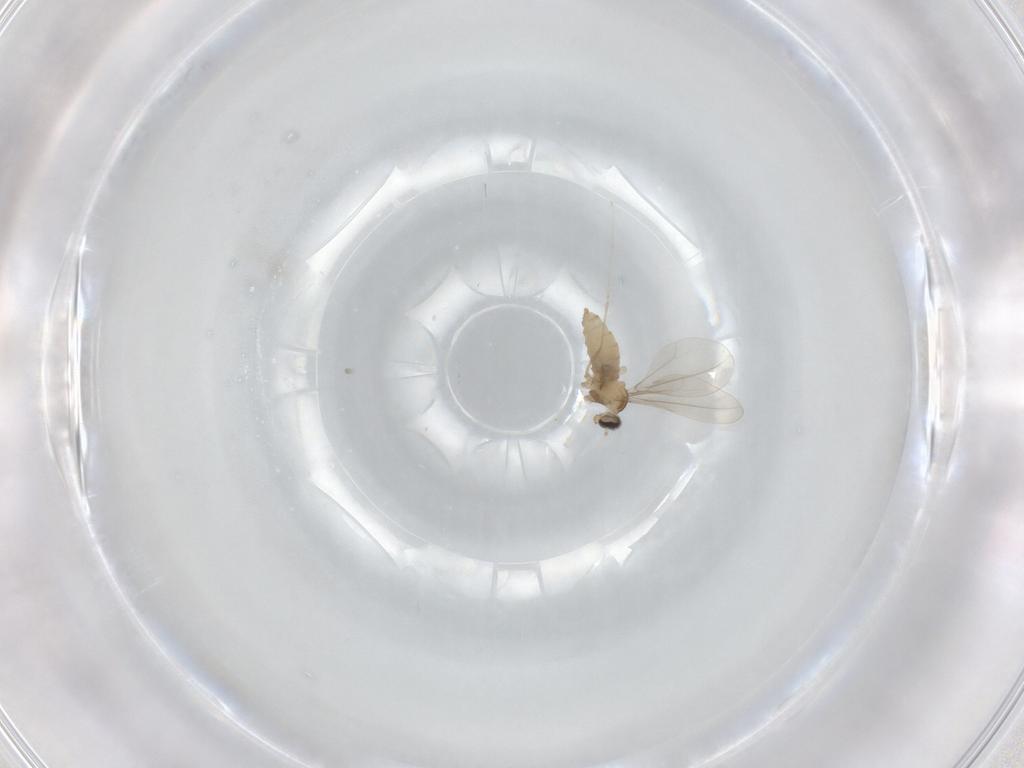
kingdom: Animalia
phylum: Arthropoda
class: Insecta
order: Diptera
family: Cecidomyiidae
